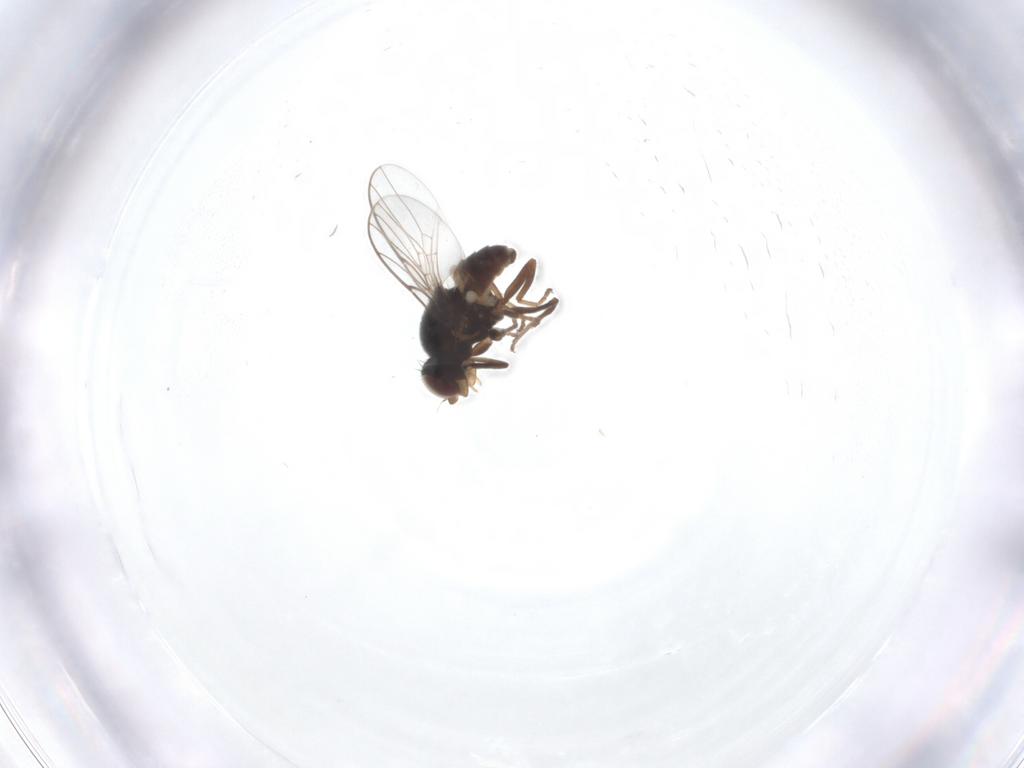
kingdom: Animalia
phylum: Arthropoda
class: Insecta
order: Diptera
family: Chloropidae
